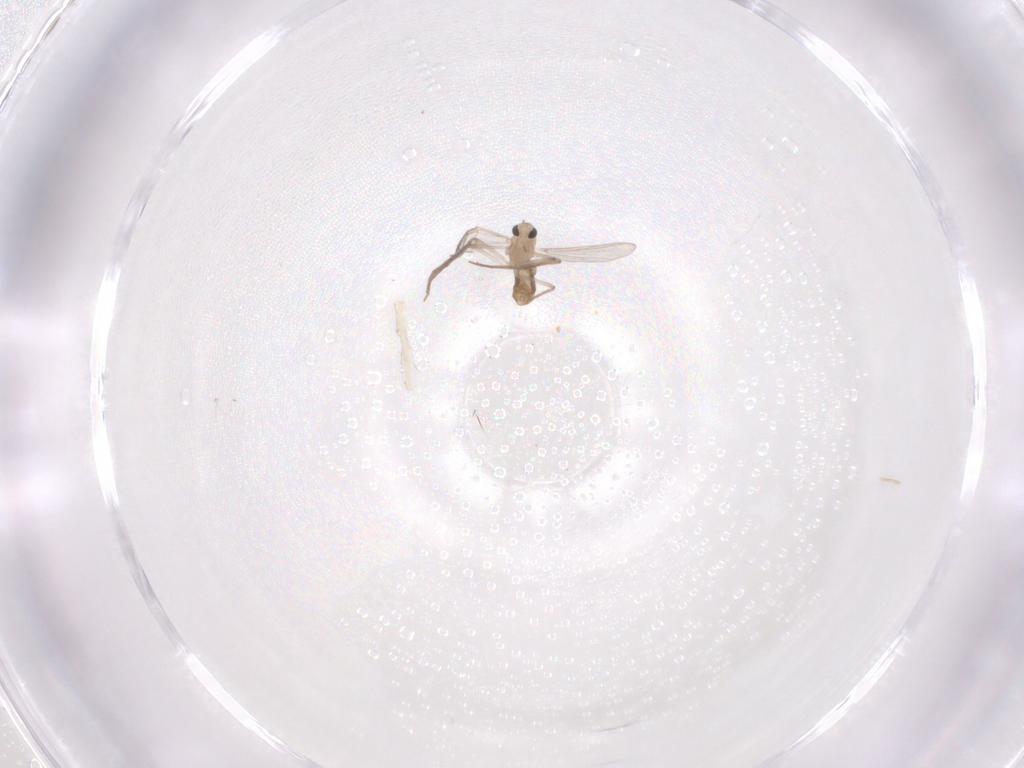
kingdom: Animalia
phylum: Arthropoda
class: Insecta
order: Diptera
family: Chironomidae
